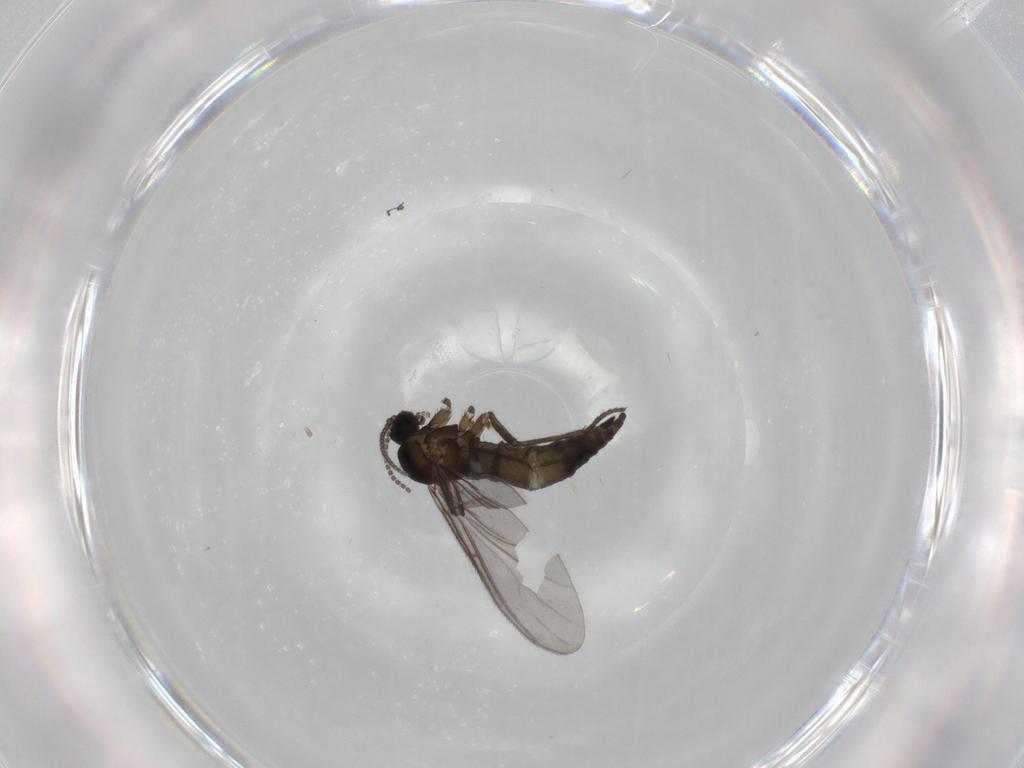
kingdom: Animalia
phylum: Arthropoda
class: Insecta
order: Diptera
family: Sciaridae
